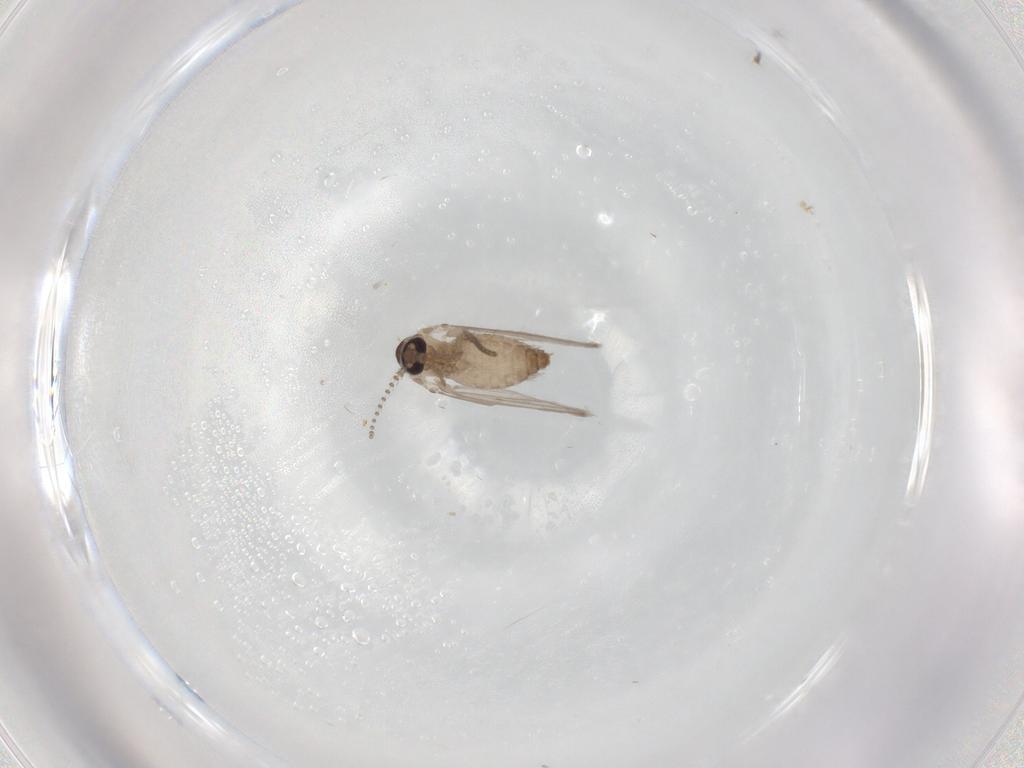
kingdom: Animalia
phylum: Arthropoda
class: Insecta
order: Diptera
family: Psychodidae
